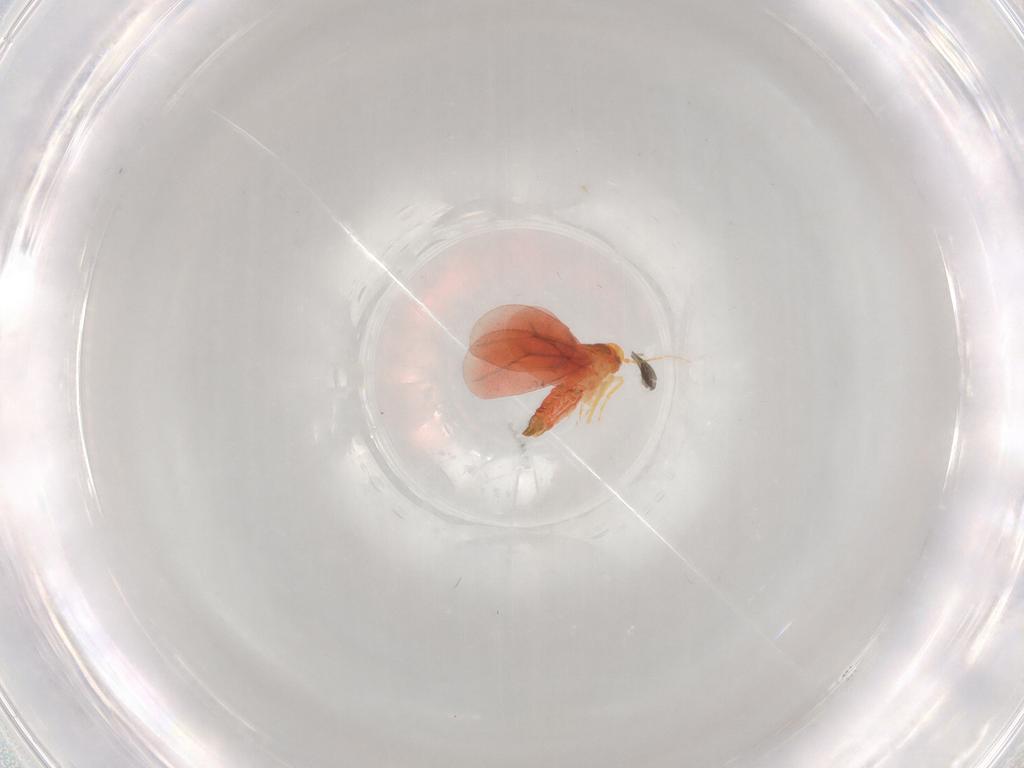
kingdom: Animalia
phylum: Arthropoda
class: Insecta
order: Hemiptera
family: Aleyrodidae
